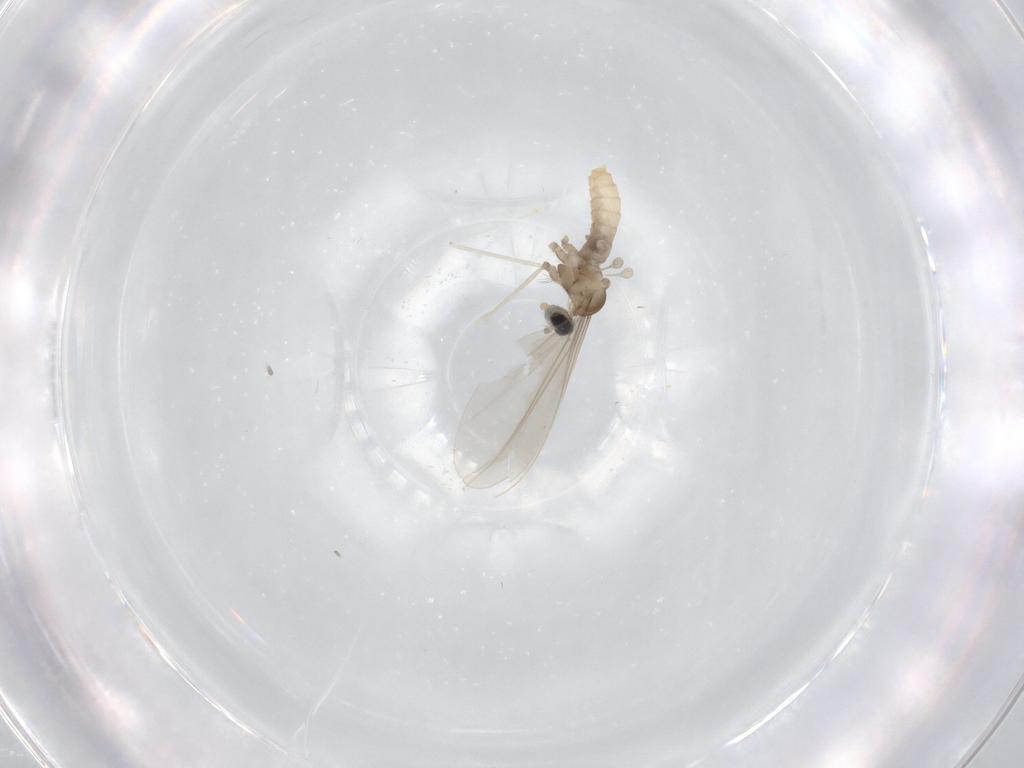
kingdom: Animalia
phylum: Arthropoda
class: Insecta
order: Diptera
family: Cecidomyiidae
